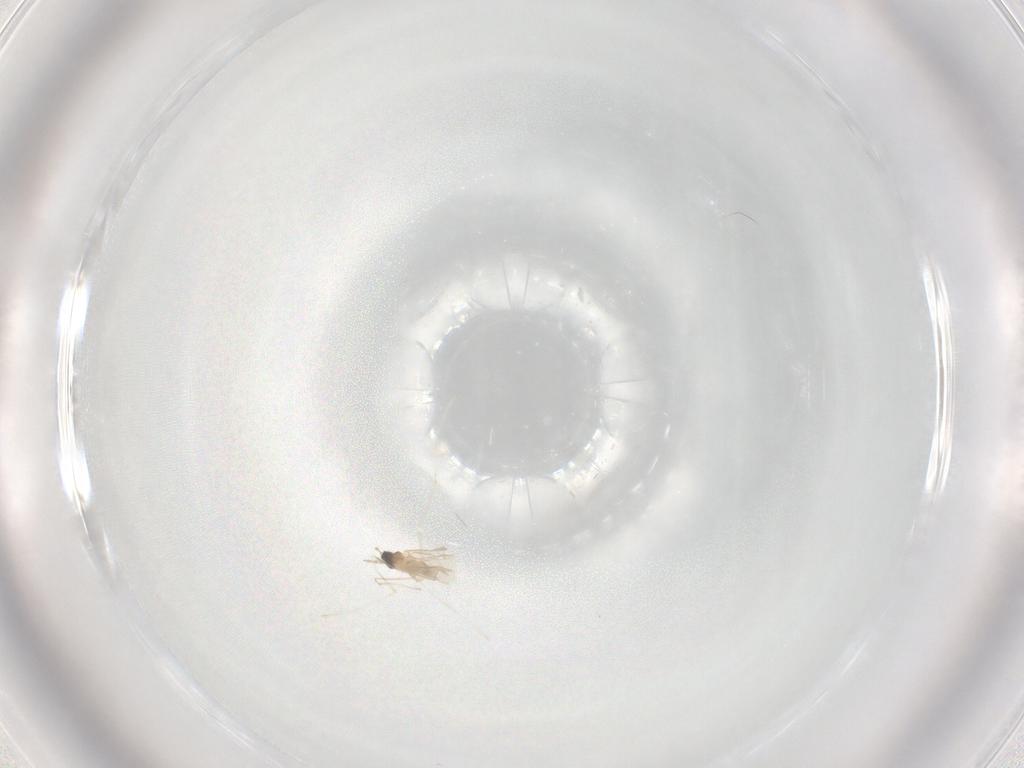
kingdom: Animalia
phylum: Arthropoda
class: Insecta
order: Diptera
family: Cecidomyiidae
